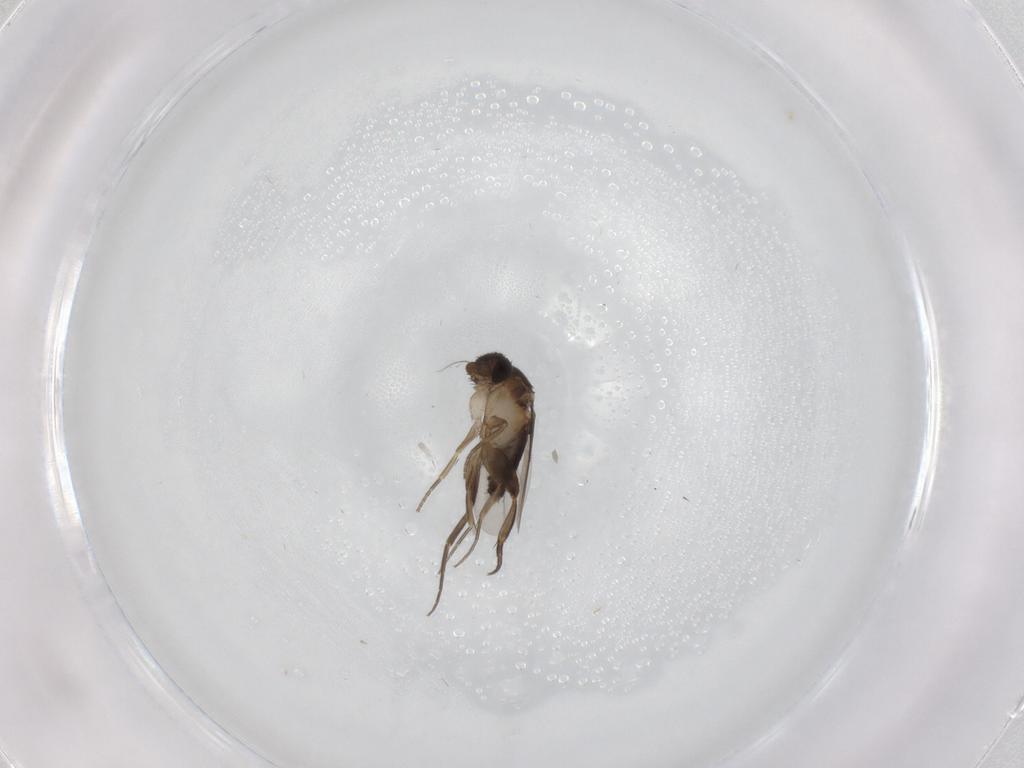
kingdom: Animalia
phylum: Arthropoda
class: Insecta
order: Diptera
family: Phoridae
